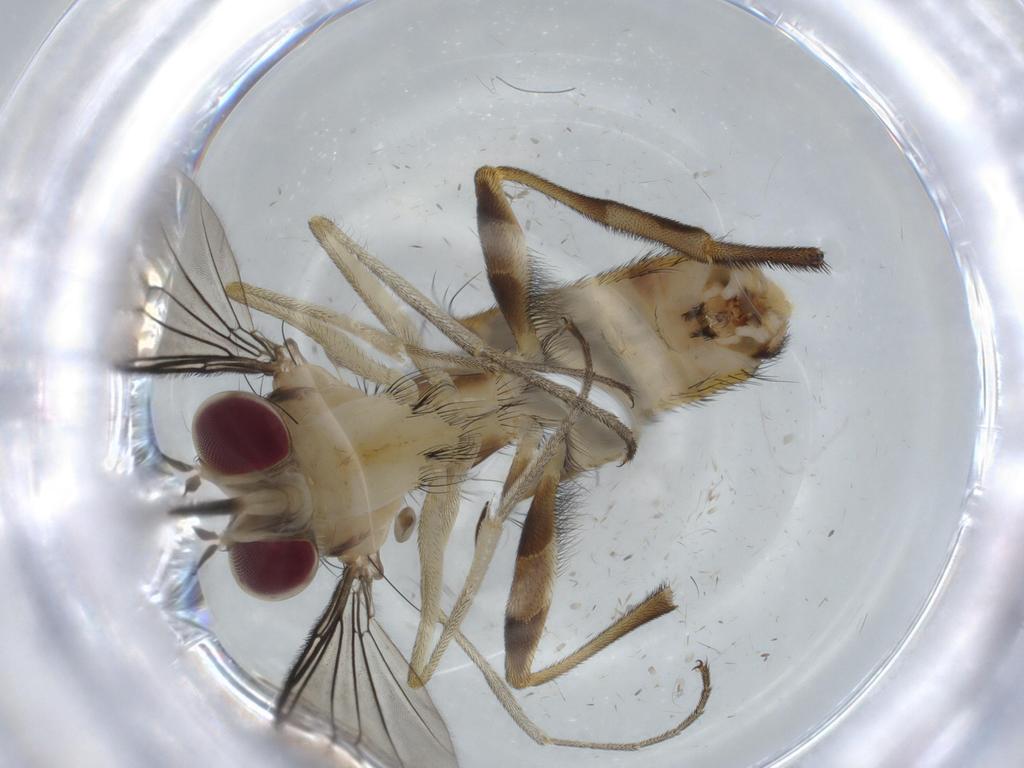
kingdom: Animalia
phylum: Arthropoda
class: Insecta
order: Diptera
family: Conopidae
